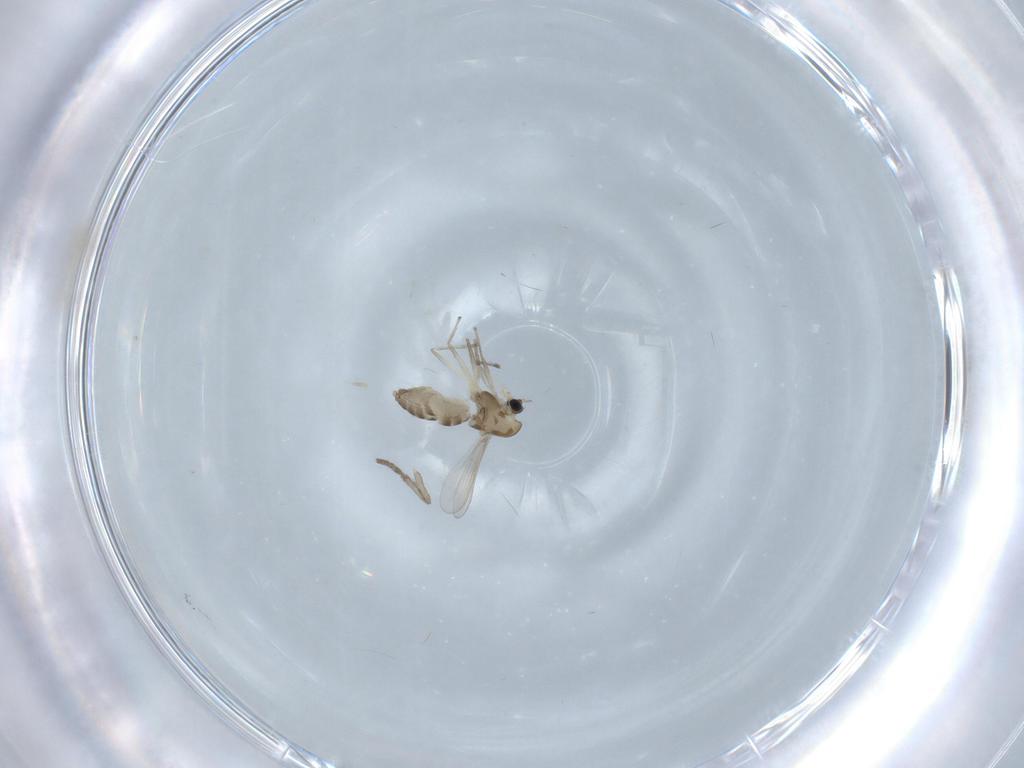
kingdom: Animalia
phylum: Arthropoda
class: Insecta
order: Diptera
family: Chironomidae
